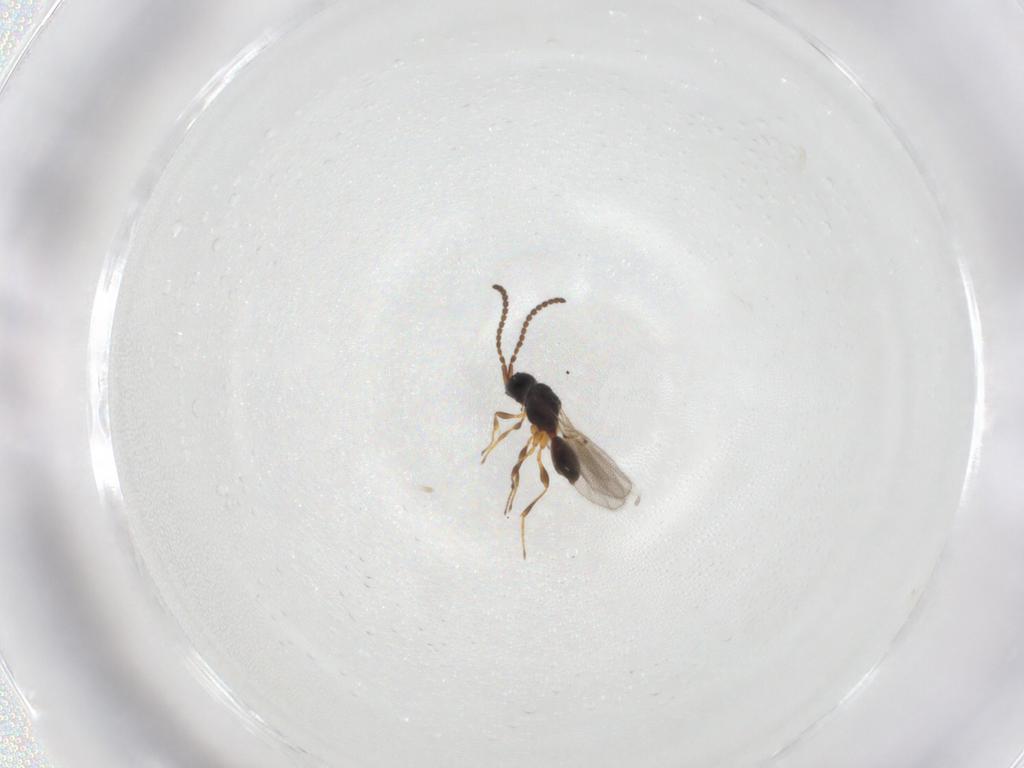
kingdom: Animalia
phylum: Arthropoda
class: Insecta
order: Hymenoptera
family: Diapriidae
